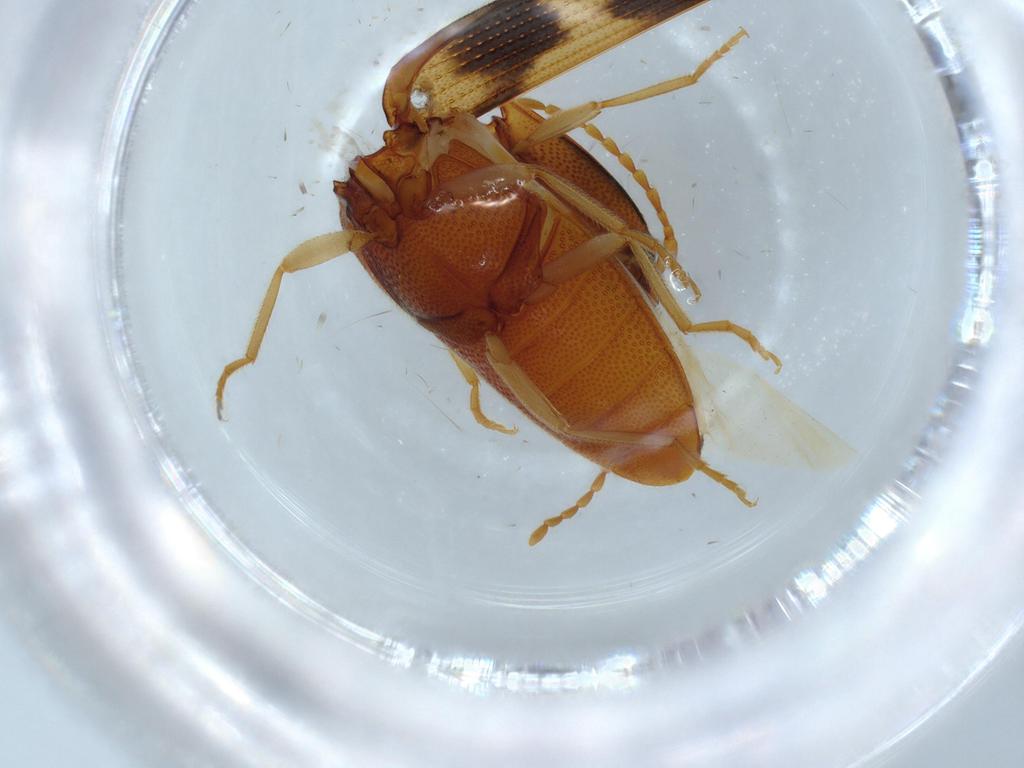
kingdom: Animalia
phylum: Arthropoda
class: Insecta
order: Coleoptera
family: Elateridae
